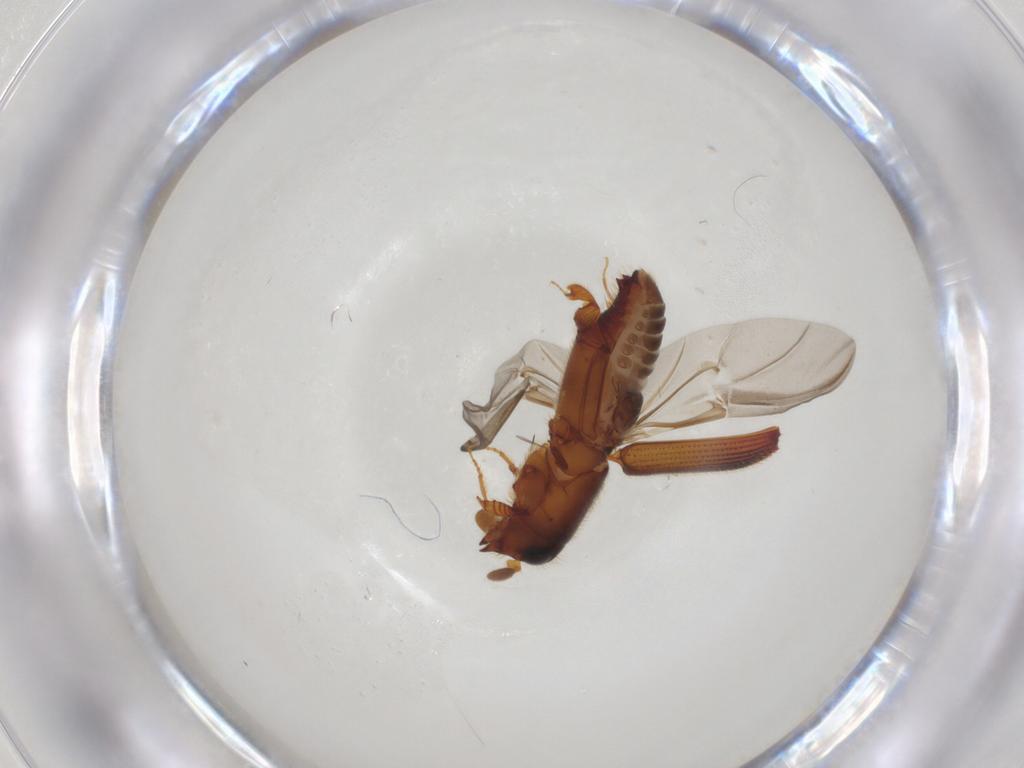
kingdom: Animalia
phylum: Arthropoda
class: Insecta
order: Coleoptera
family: Curculionidae
